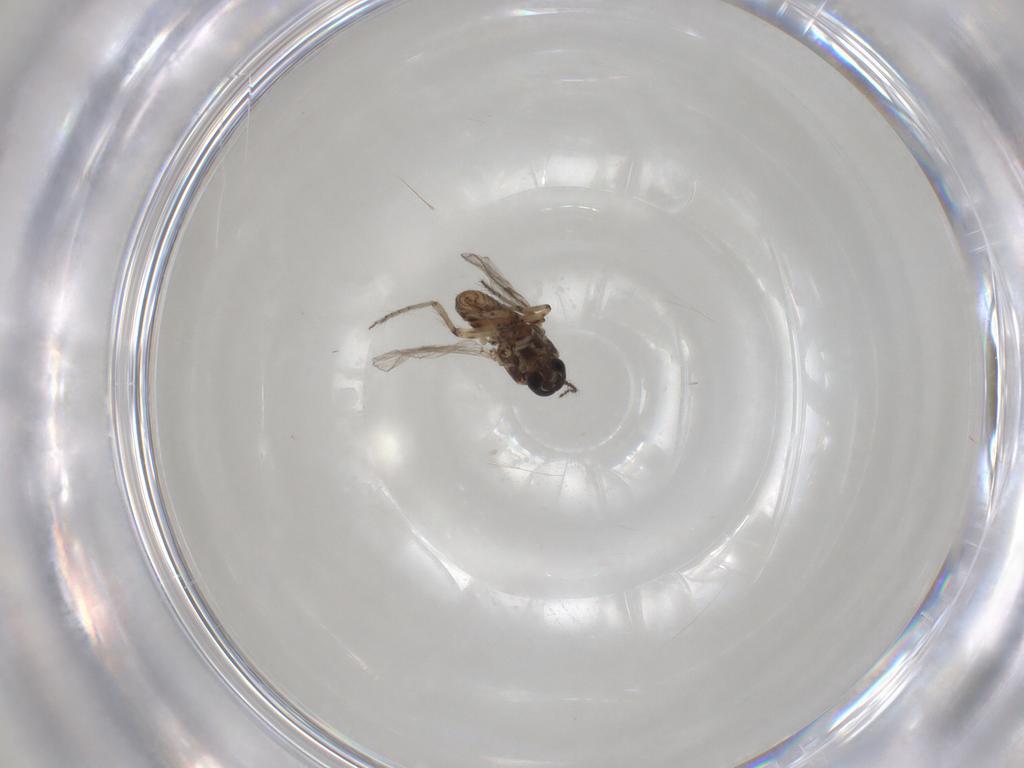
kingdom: Animalia
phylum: Arthropoda
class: Insecta
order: Diptera
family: Ceratopogonidae
